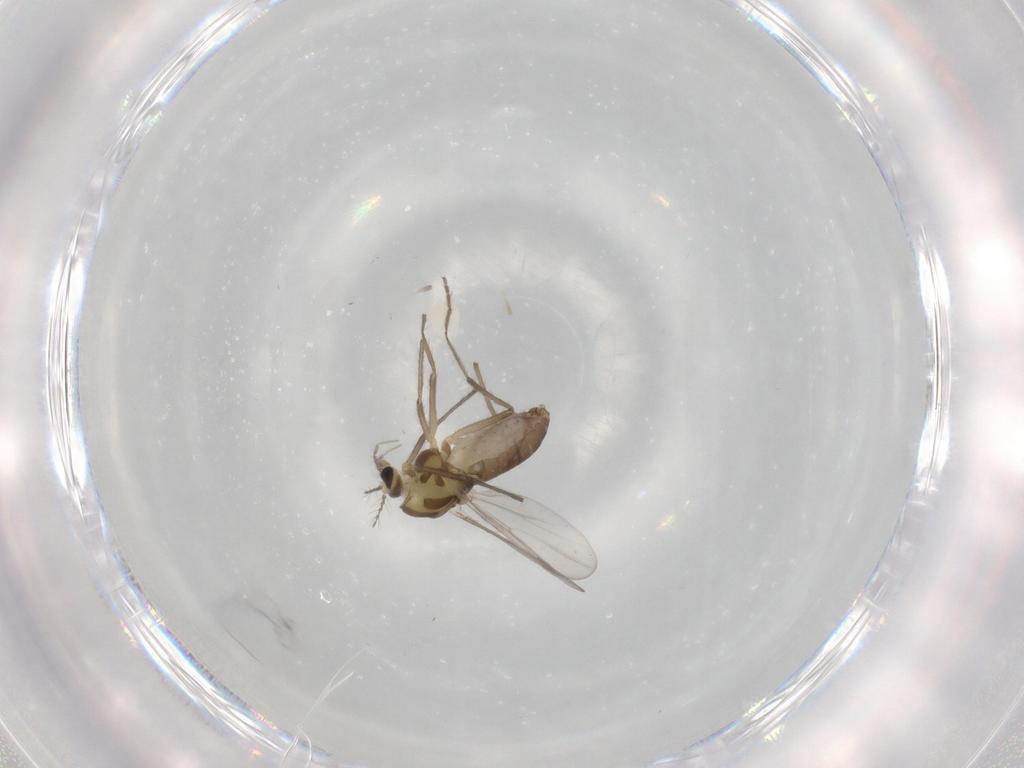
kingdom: Animalia
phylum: Arthropoda
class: Insecta
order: Diptera
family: Chironomidae
